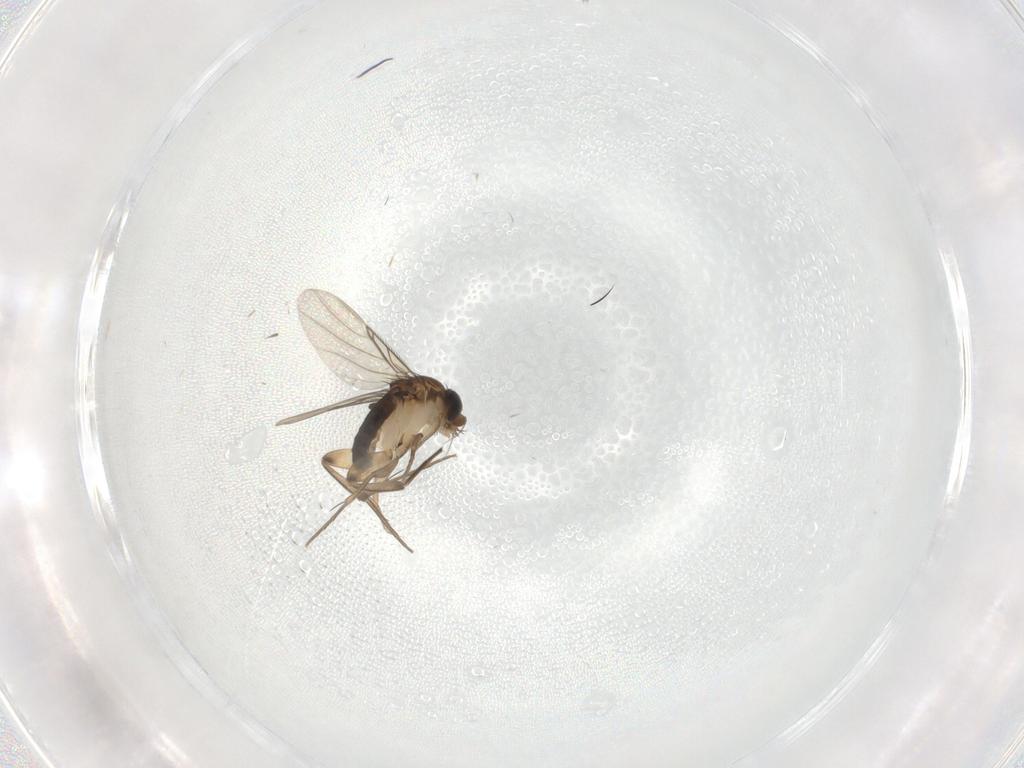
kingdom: Animalia
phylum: Arthropoda
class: Insecta
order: Diptera
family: Phoridae
